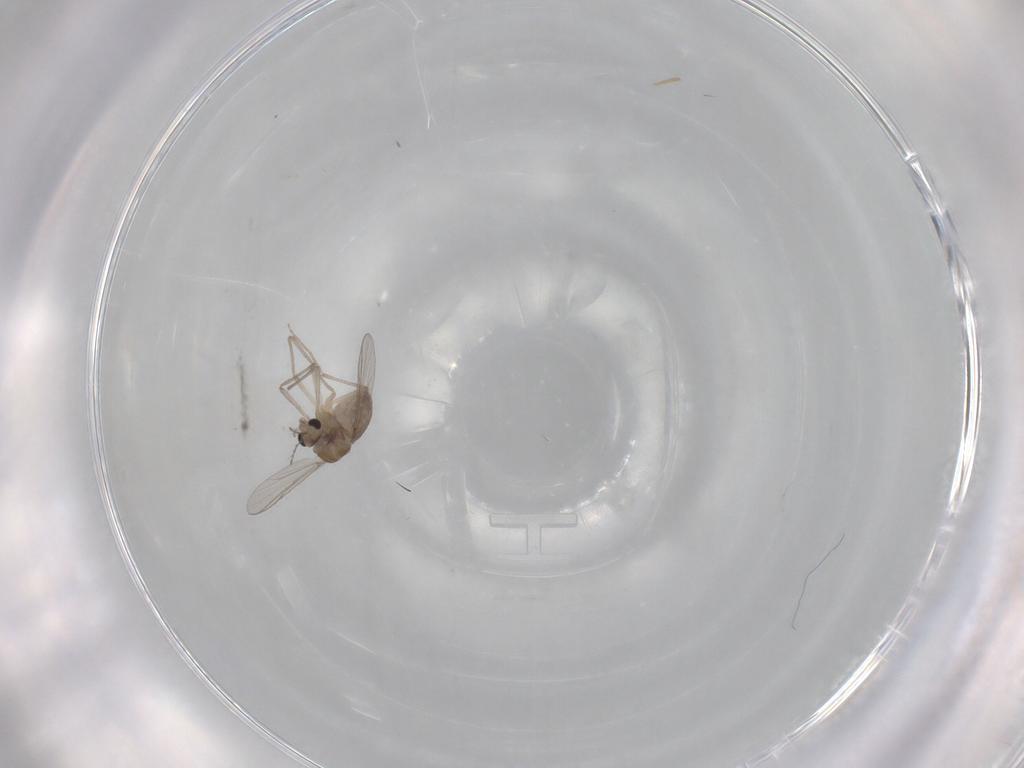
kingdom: Animalia
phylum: Arthropoda
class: Insecta
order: Diptera
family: Chironomidae
